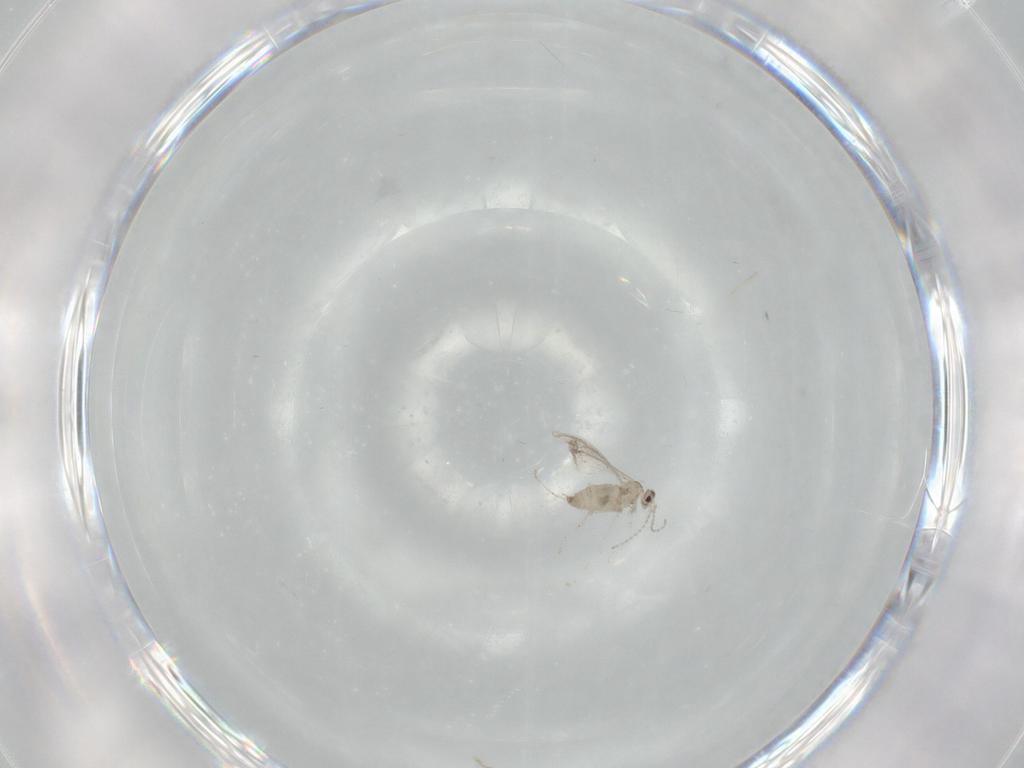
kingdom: Animalia
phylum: Arthropoda
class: Insecta
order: Diptera
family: Cecidomyiidae
